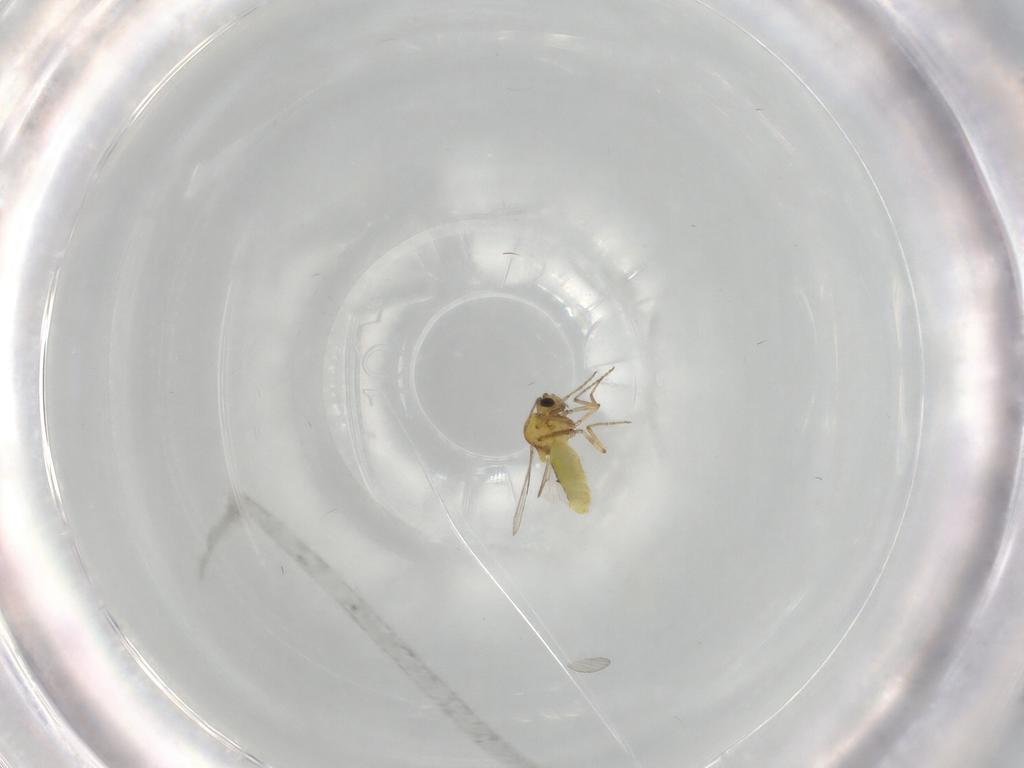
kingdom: Animalia
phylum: Arthropoda
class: Insecta
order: Diptera
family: Ceratopogonidae
